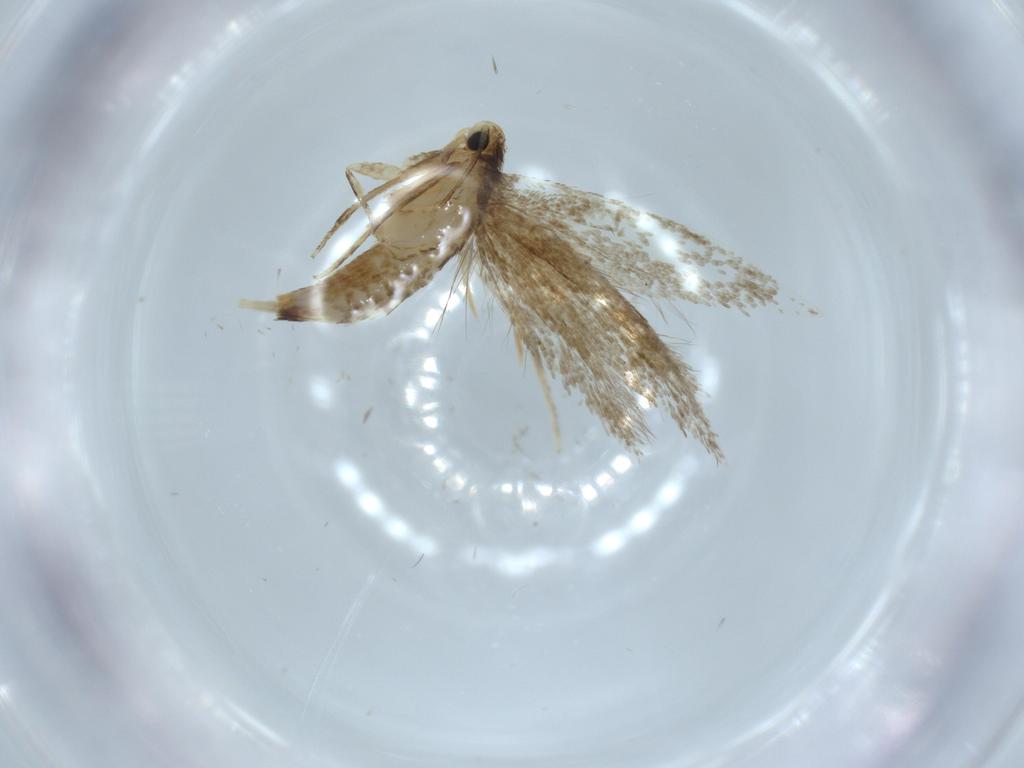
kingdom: Animalia
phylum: Arthropoda
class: Insecta
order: Lepidoptera
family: Tineidae
